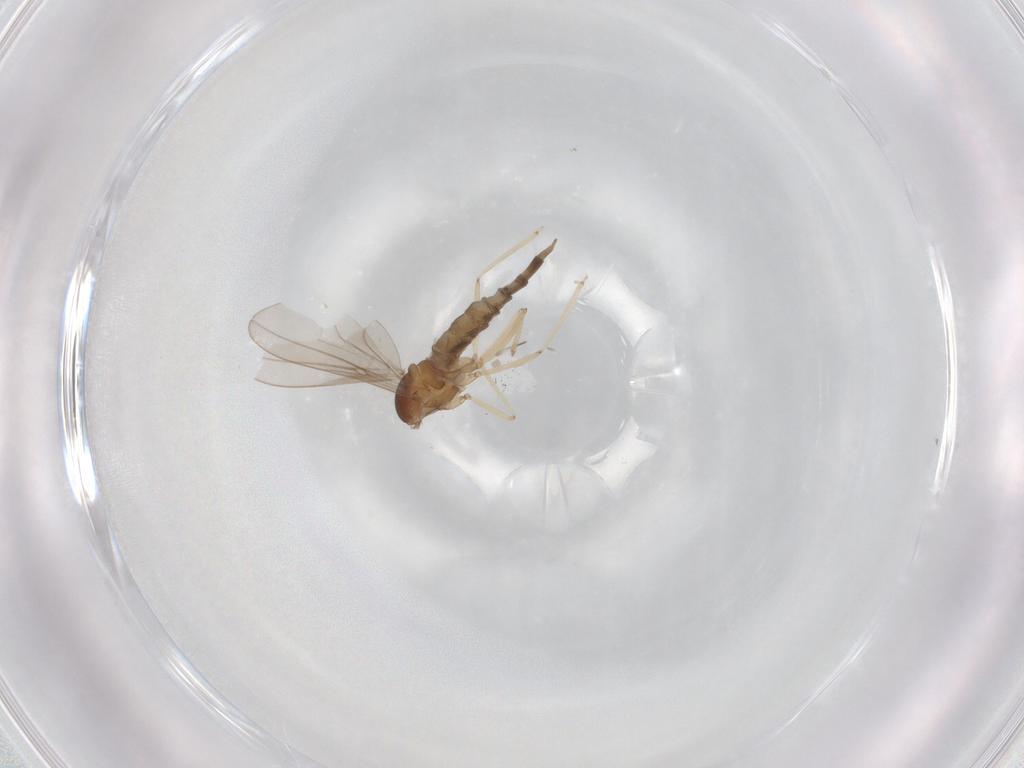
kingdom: Animalia
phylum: Arthropoda
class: Insecta
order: Diptera
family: Cecidomyiidae
